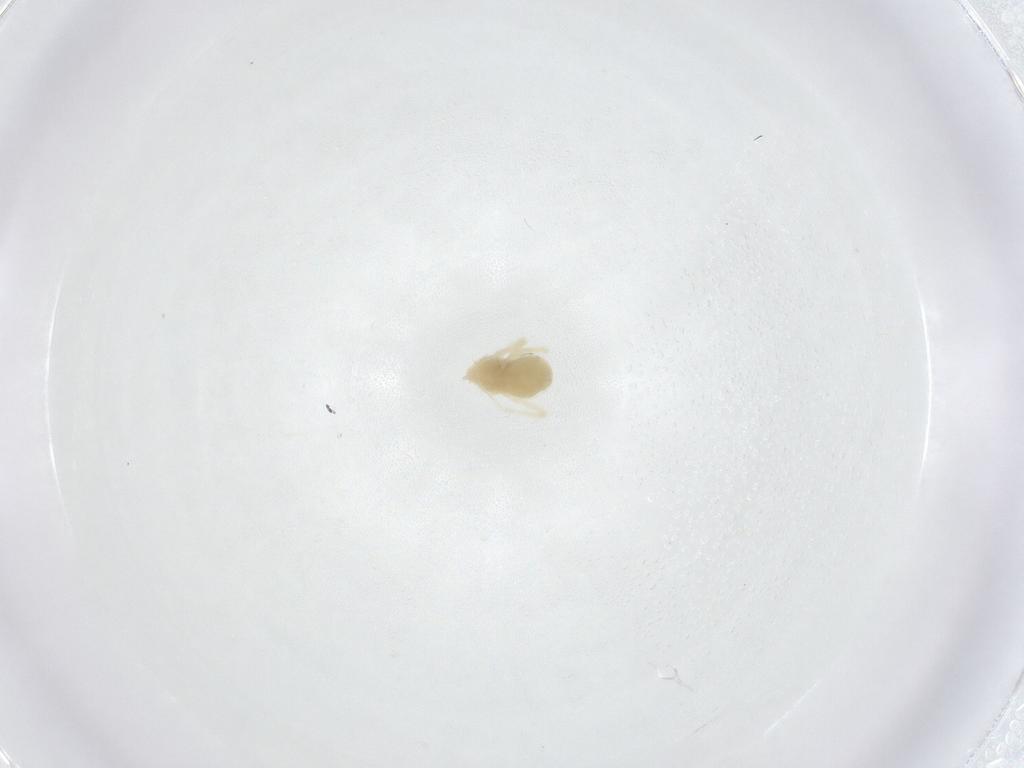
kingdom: Animalia
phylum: Arthropoda
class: Arachnida
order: Trombidiformes
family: Anystidae
